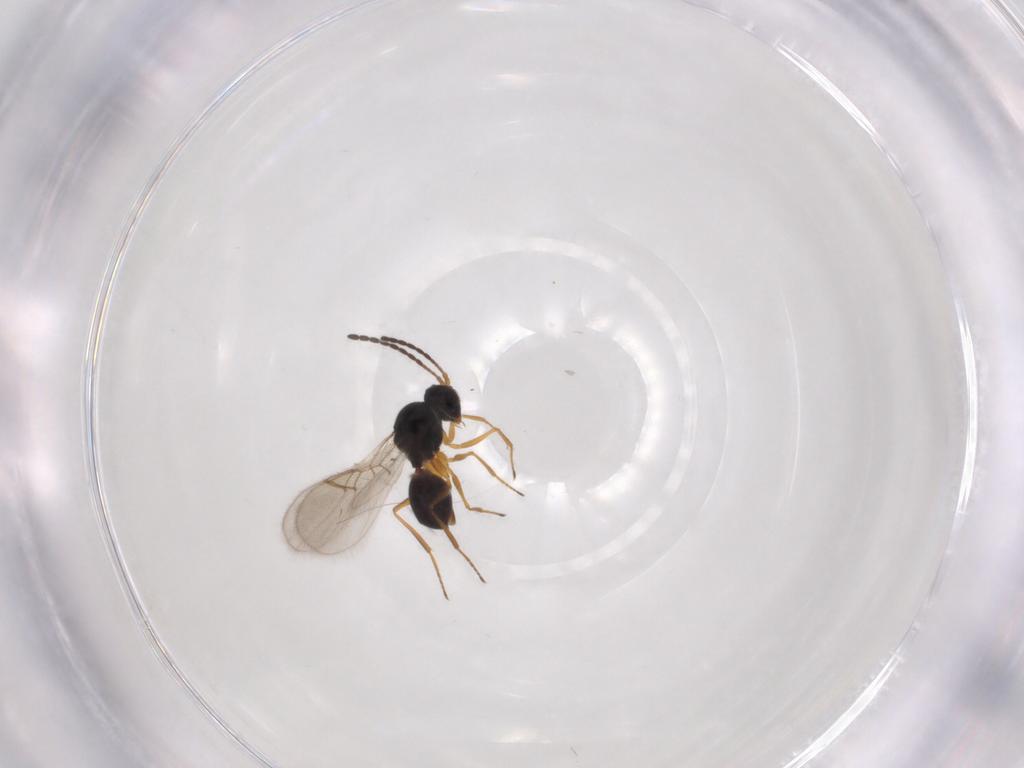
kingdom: Animalia
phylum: Arthropoda
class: Insecta
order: Hymenoptera
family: Figitidae
